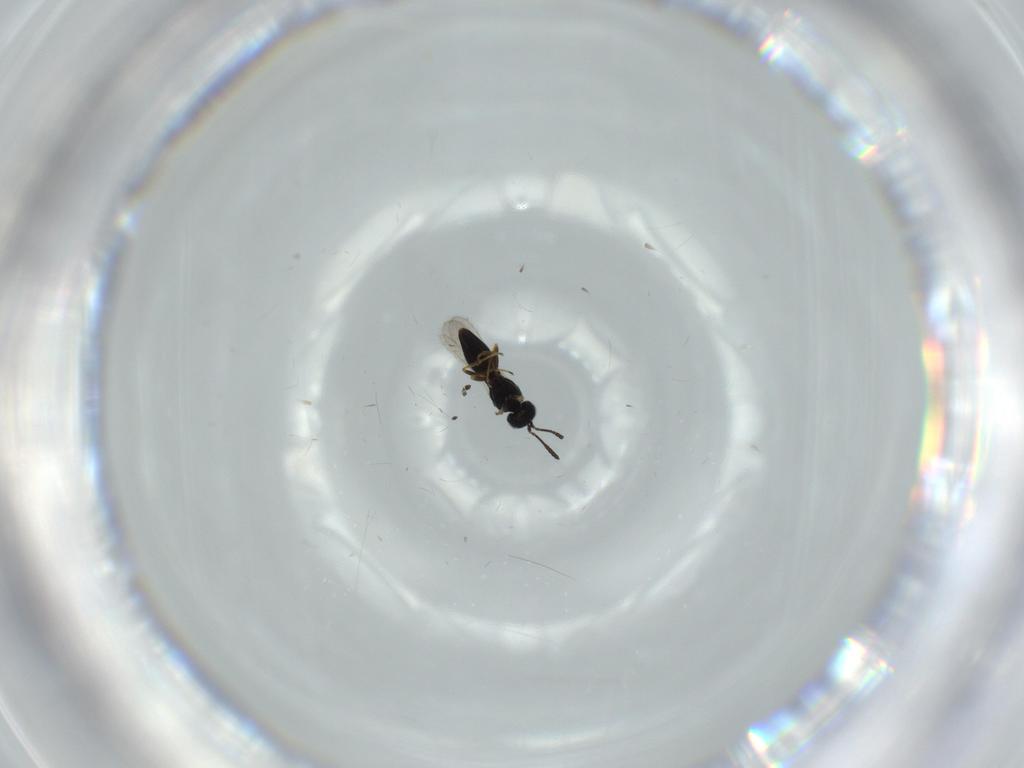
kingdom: Animalia
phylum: Arthropoda
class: Insecta
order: Hymenoptera
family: Scelionidae
